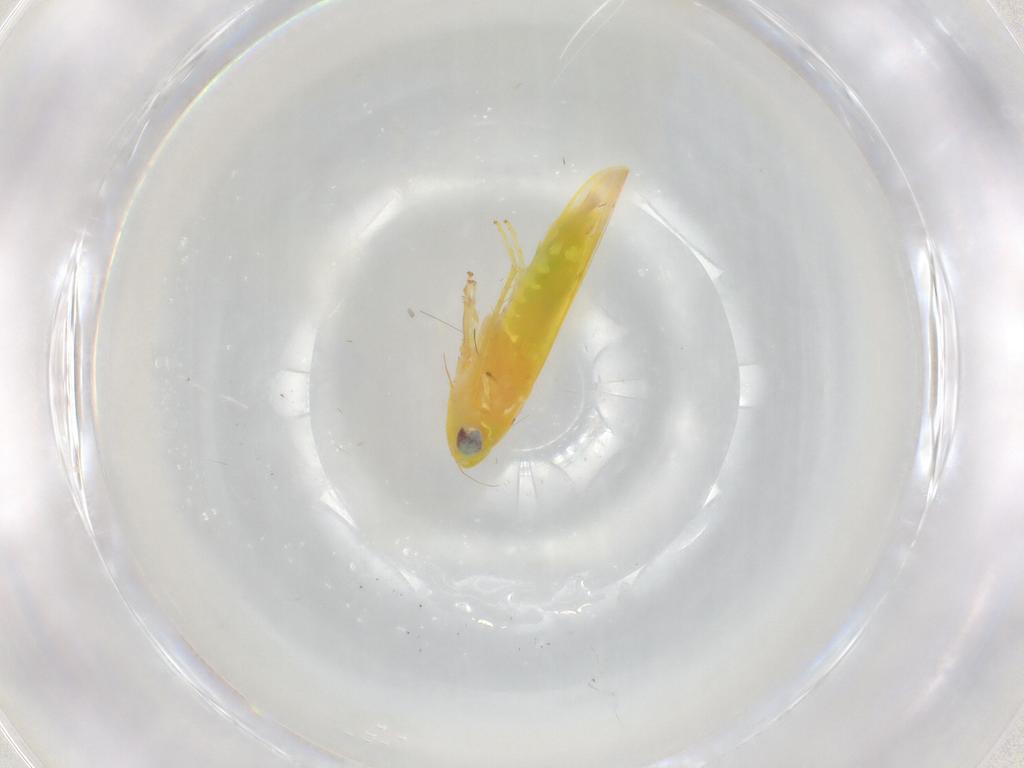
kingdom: Animalia
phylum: Arthropoda
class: Insecta
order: Hemiptera
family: Cicadellidae
